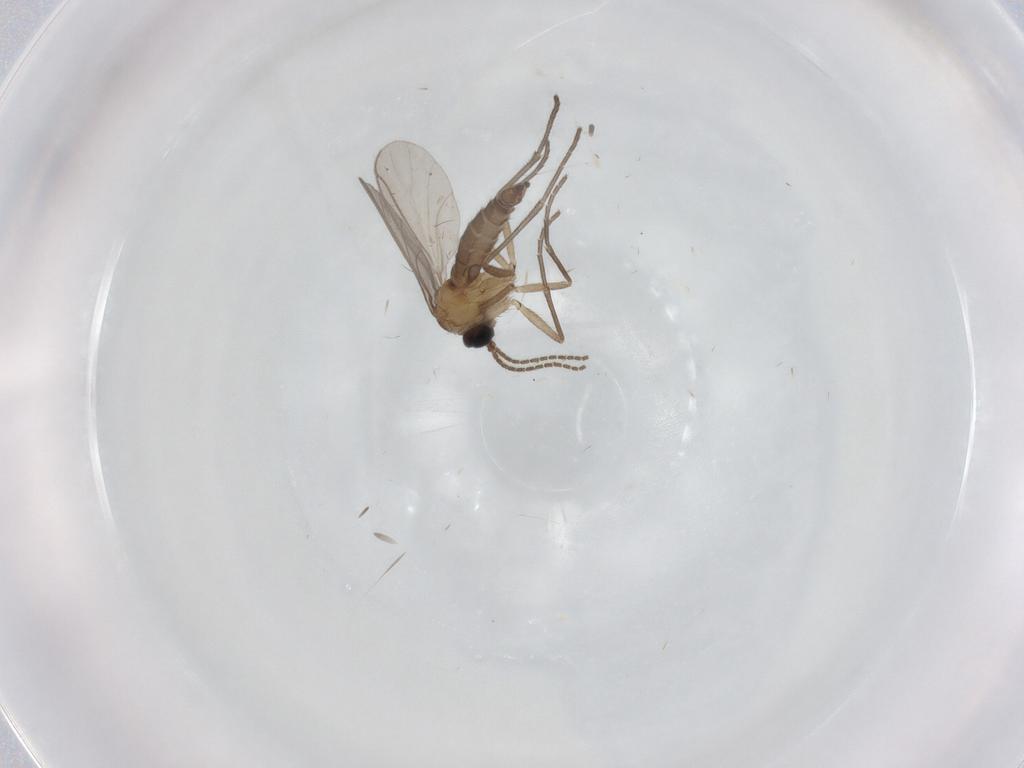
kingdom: Animalia
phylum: Arthropoda
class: Insecta
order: Diptera
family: Sciaridae
